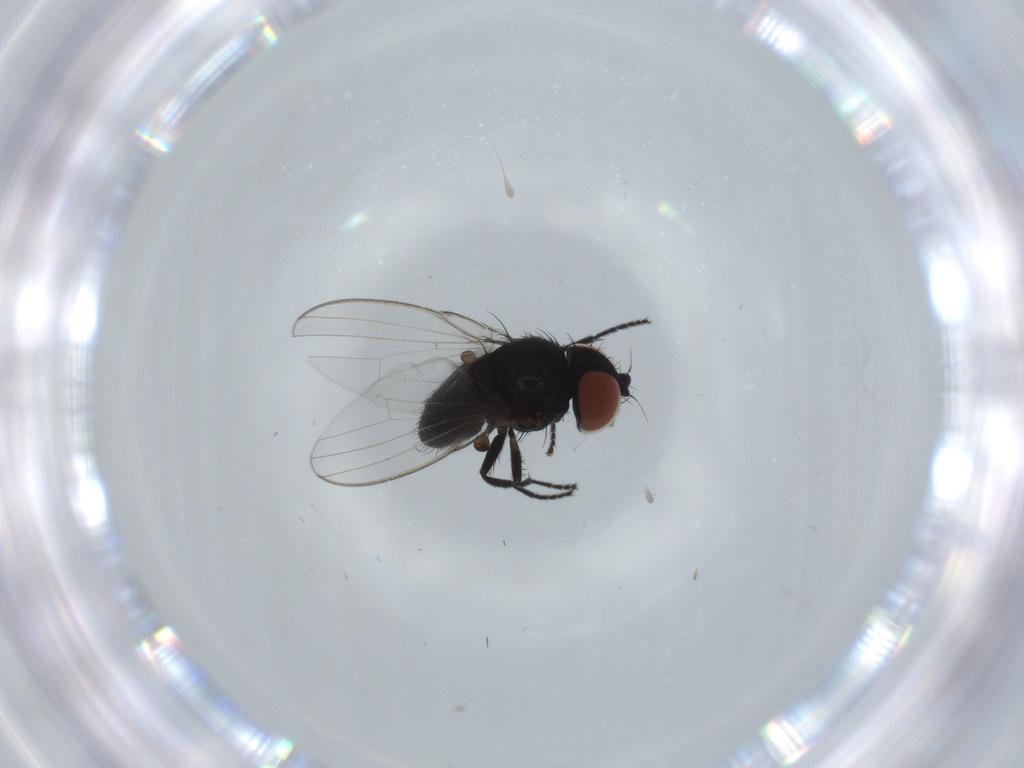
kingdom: Animalia
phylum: Arthropoda
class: Insecta
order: Diptera
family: Milichiidae
